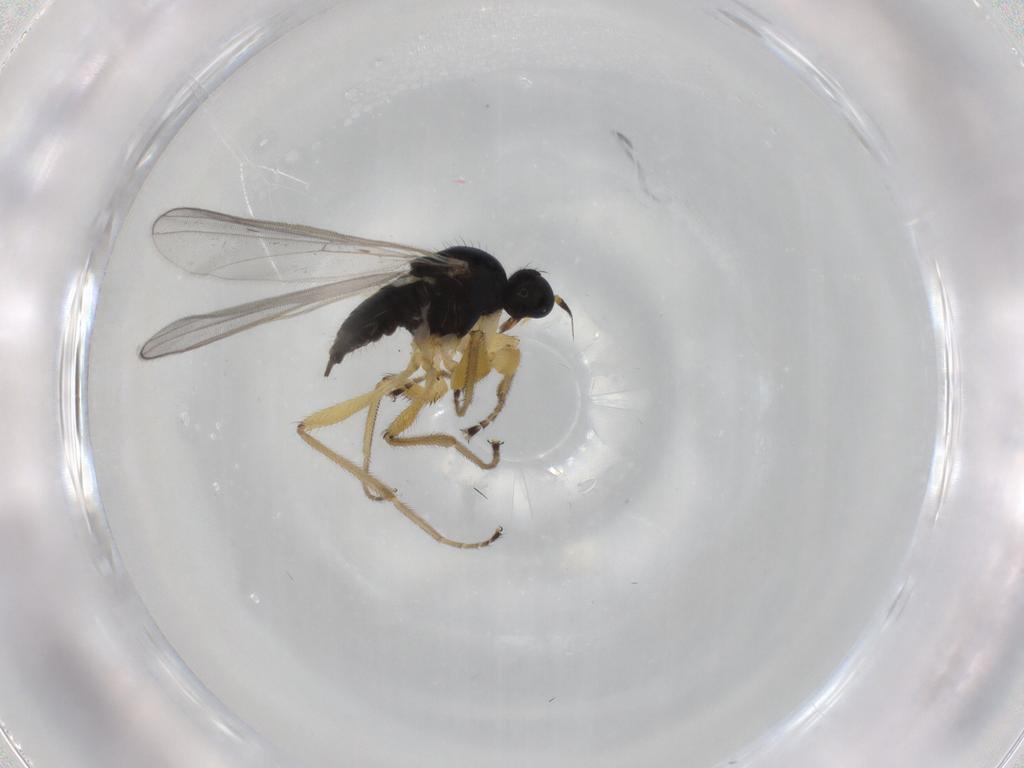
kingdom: Animalia
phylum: Arthropoda
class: Insecta
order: Diptera
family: Hybotidae
